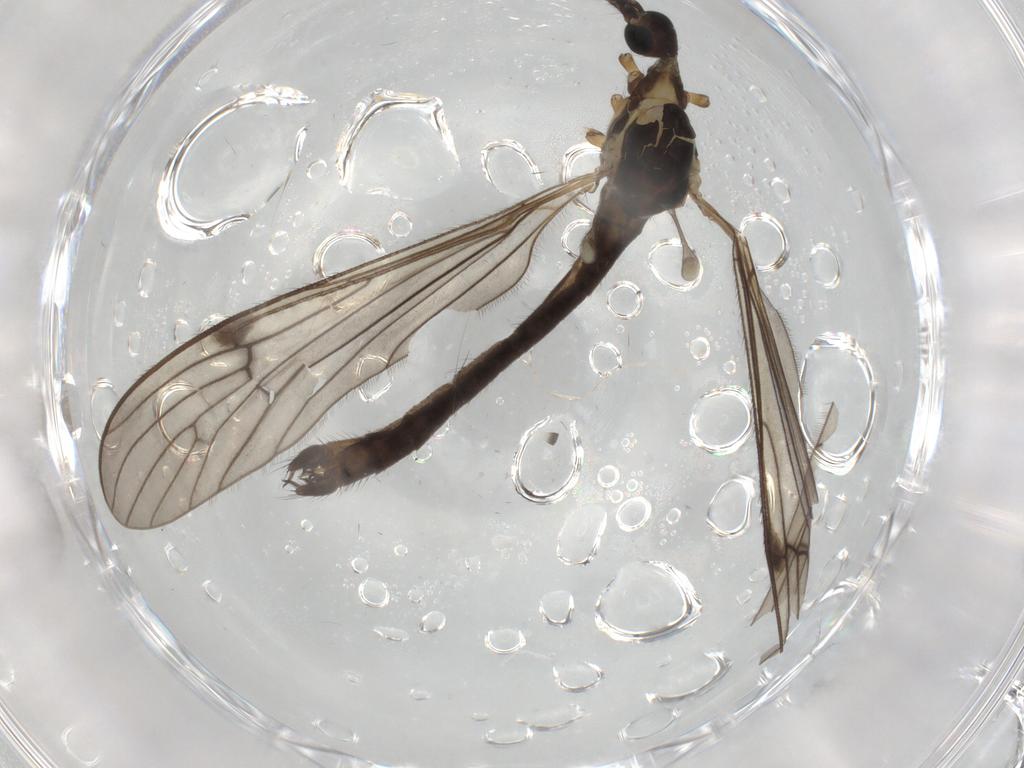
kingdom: Animalia
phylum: Arthropoda
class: Insecta
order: Diptera
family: Limoniidae
